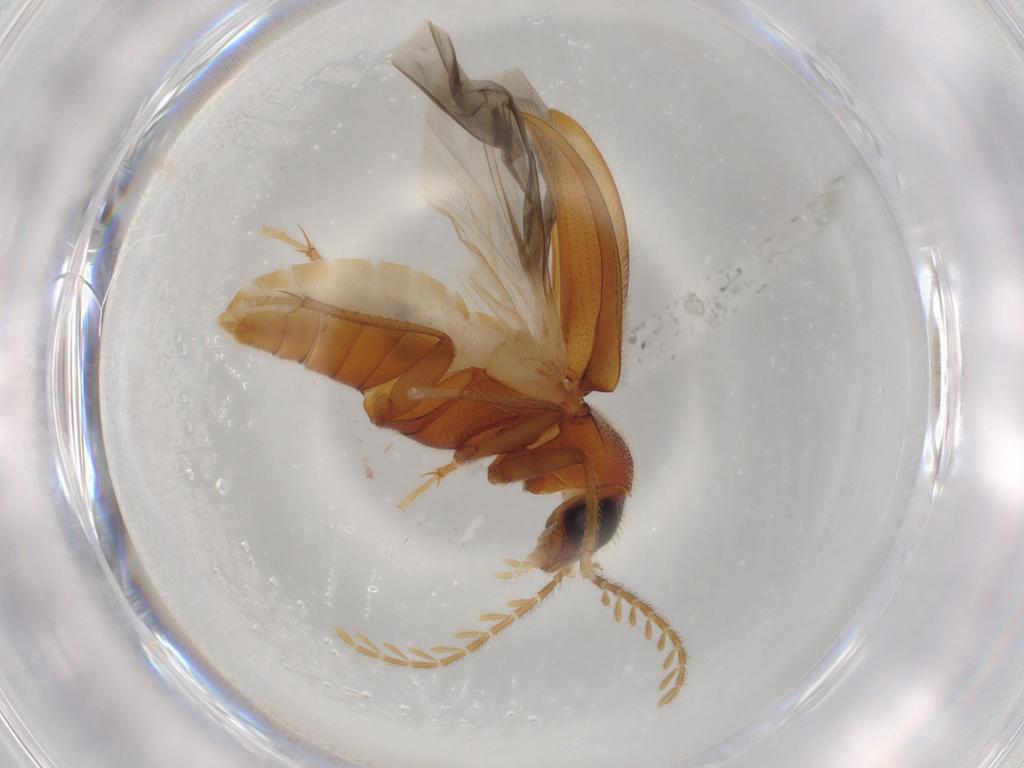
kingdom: Animalia
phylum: Arthropoda
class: Insecta
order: Coleoptera
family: Ptilodactylidae
